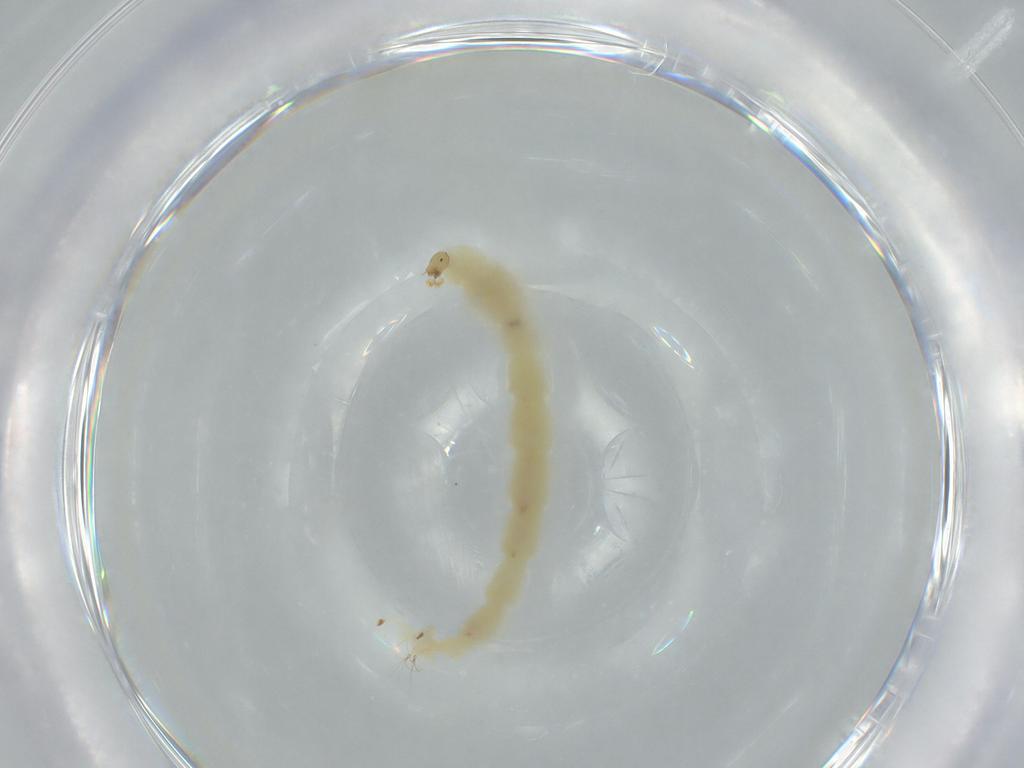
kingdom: Animalia
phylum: Arthropoda
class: Insecta
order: Diptera
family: Chironomidae
